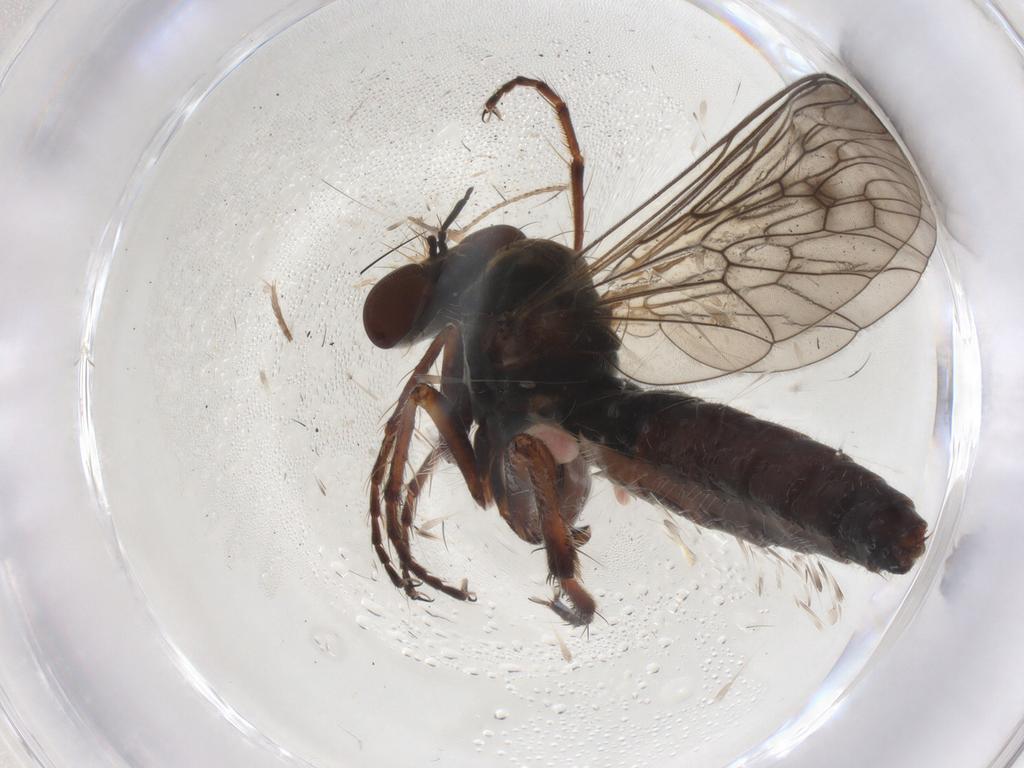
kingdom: Animalia
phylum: Arthropoda
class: Insecta
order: Diptera
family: Asilidae
